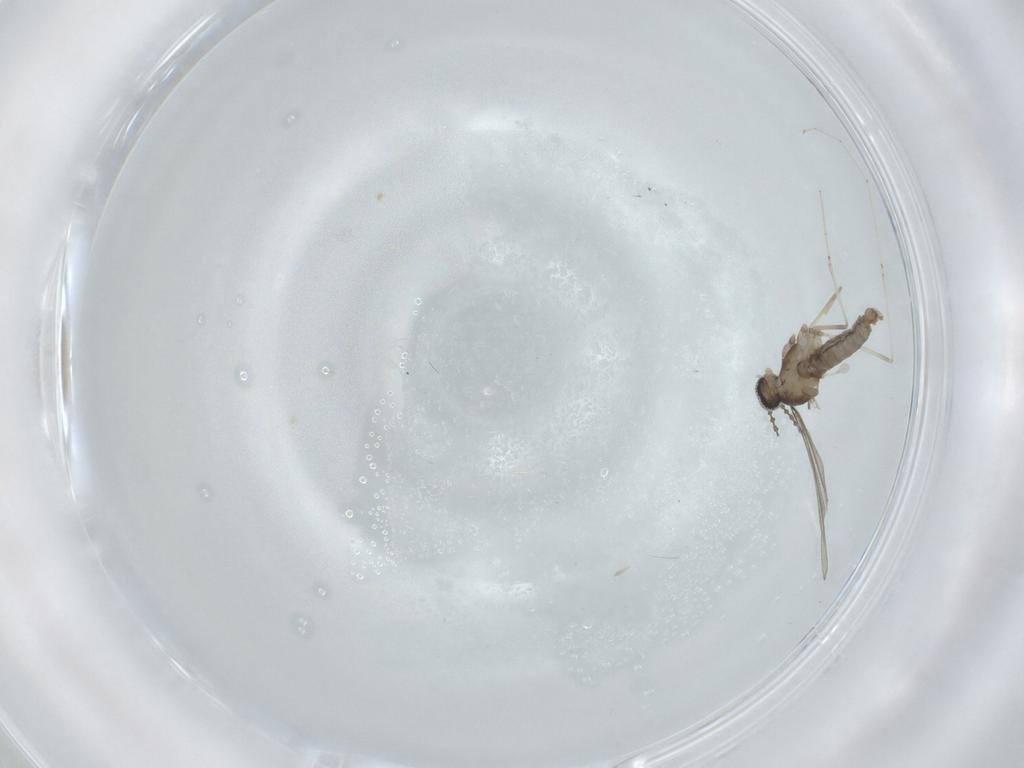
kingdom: Animalia
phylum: Arthropoda
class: Insecta
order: Diptera
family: Cecidomyiidae
